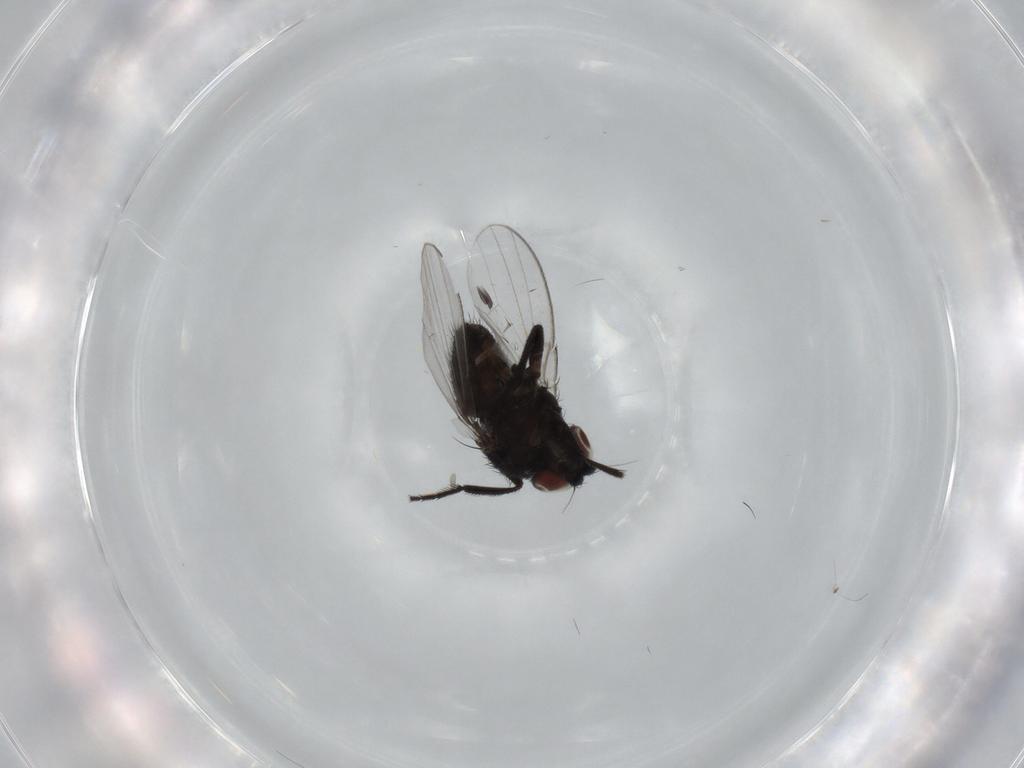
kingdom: Animalia
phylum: Arthropoda
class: Insecta
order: Diptera
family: Milichiidae
